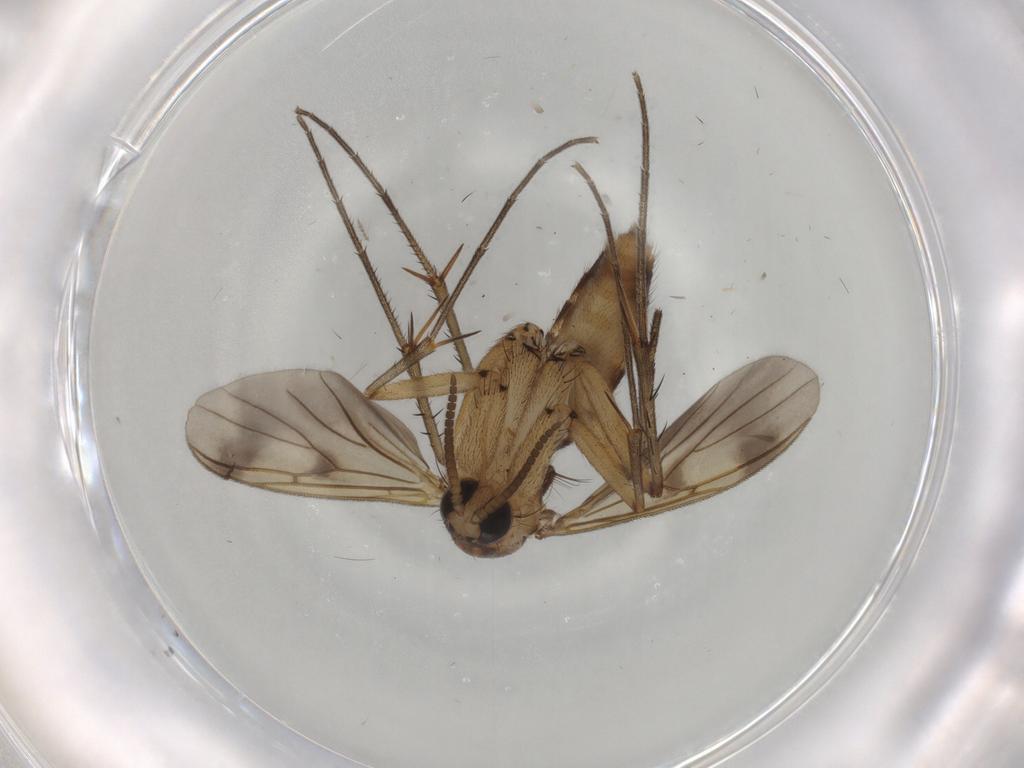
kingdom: Animalia
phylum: Arthropoda
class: Insecta
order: Diptera
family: Mycetophilidae
